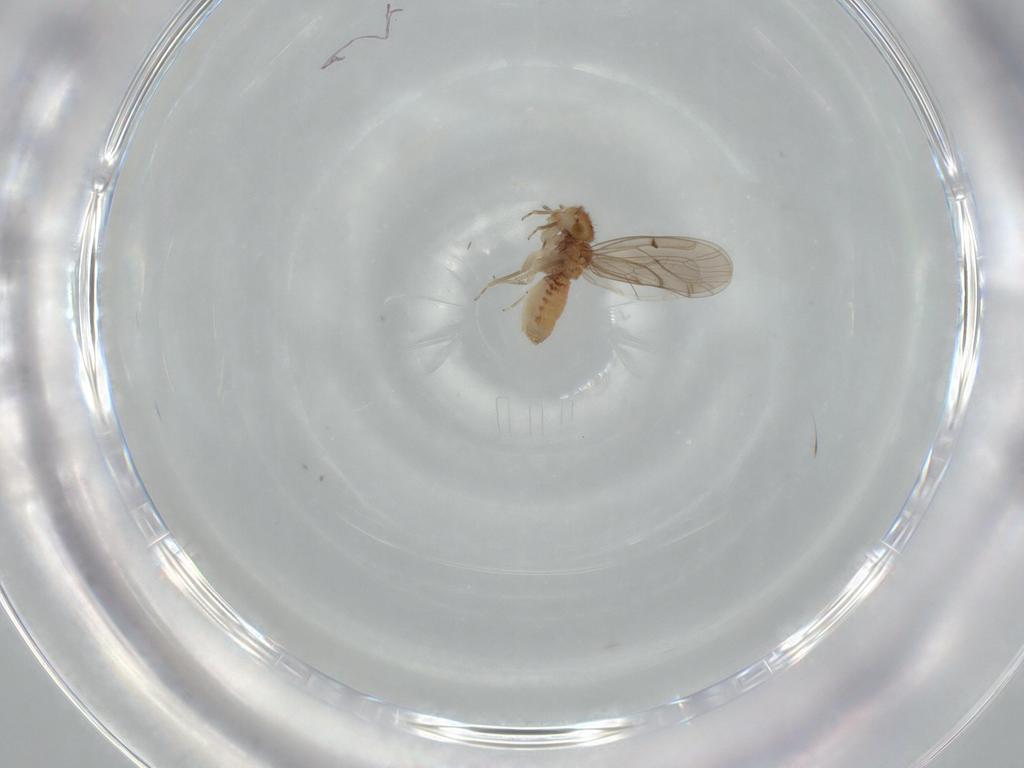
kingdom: Animalia
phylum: Arthropoda
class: Insecta
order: Psocodea
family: Ectopsocidae
